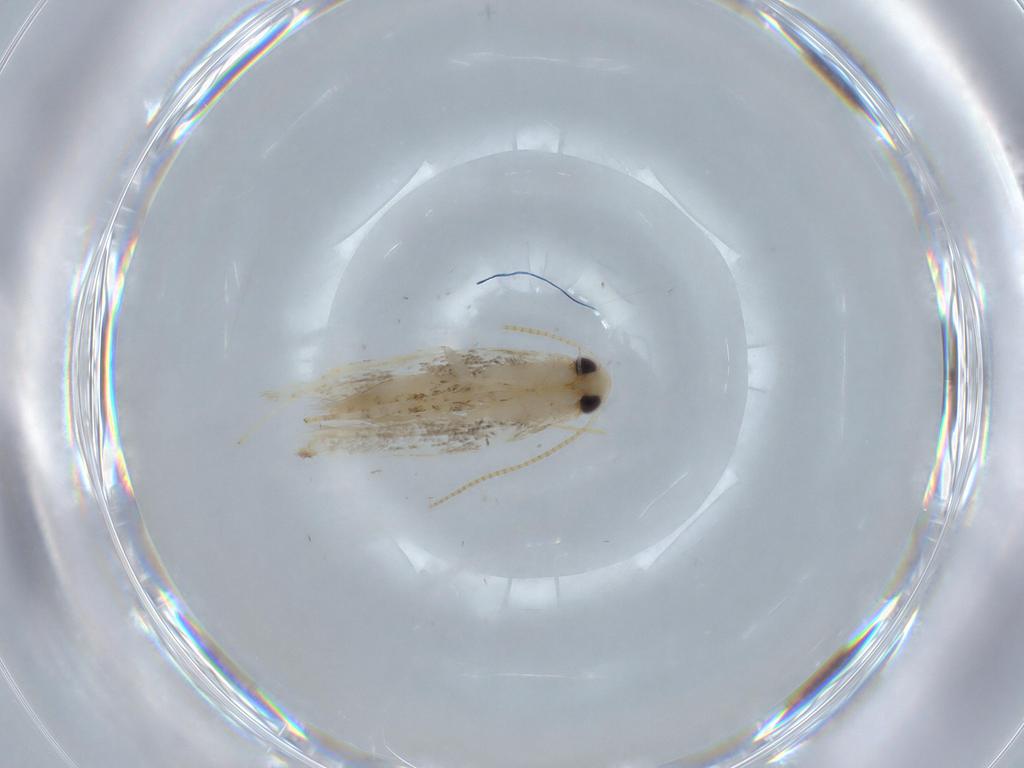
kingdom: Animalia
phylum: Arthropoda
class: Insecta
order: Lepidoptera
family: Gracillariidae
